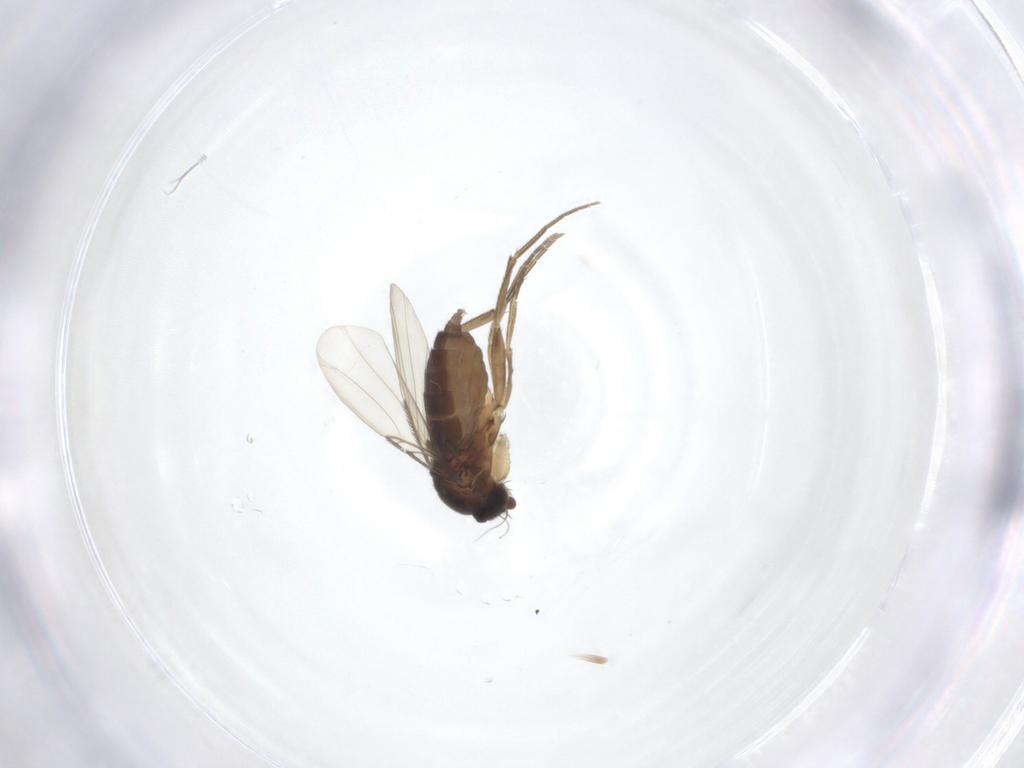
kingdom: Animalia
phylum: Arthropoda
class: Insecta
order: Diptera
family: Phoridae
